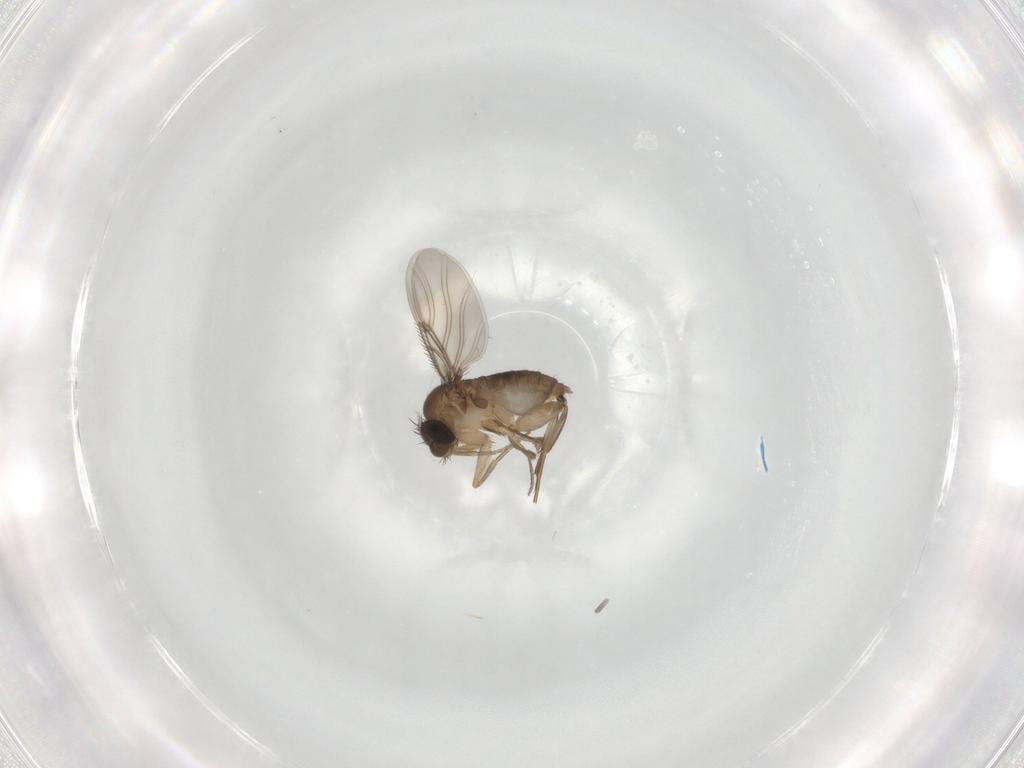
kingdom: Animalia
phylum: Arthropoda
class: Insecta
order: Diptera
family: Phoridae
